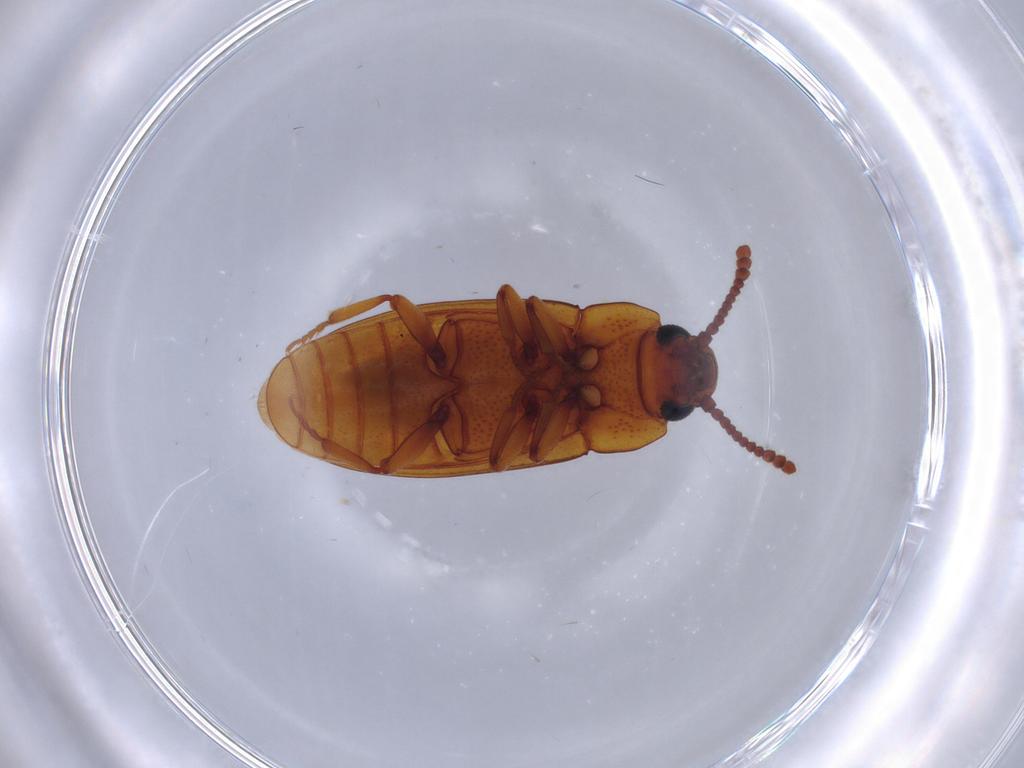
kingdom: Animalia
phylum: Arthropoda
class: Insecta
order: Coleoptera
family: Erotylidae
